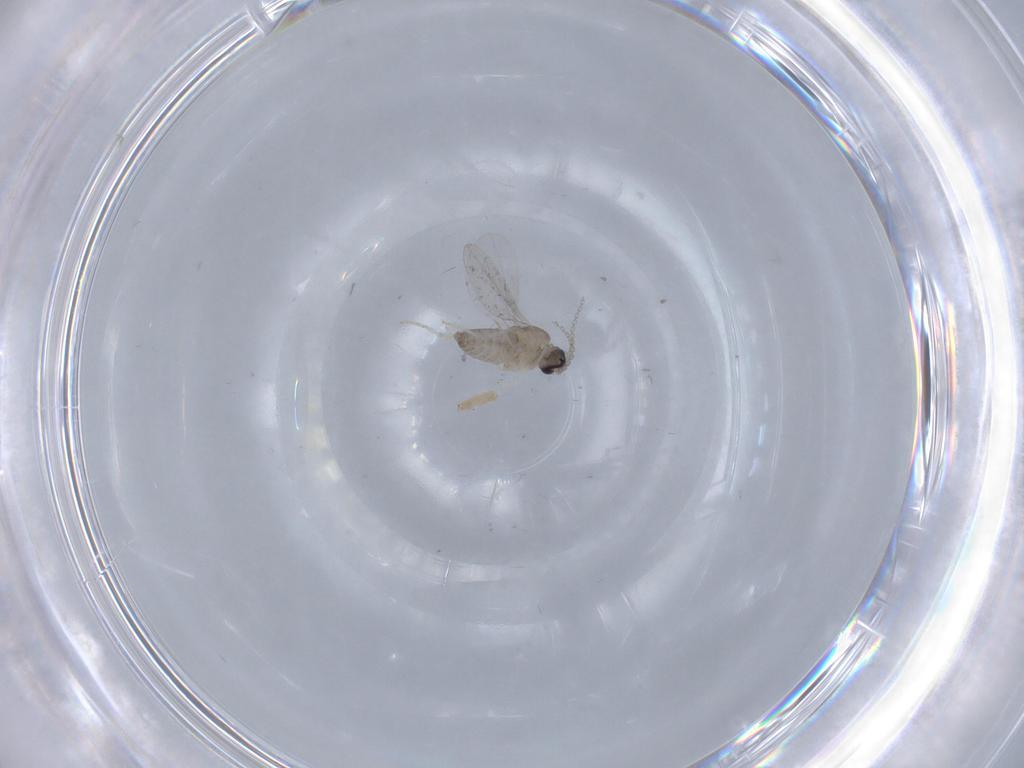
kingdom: Animalia
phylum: Arthropoda
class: Insecta
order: Diptera
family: Cecidomyiidae
